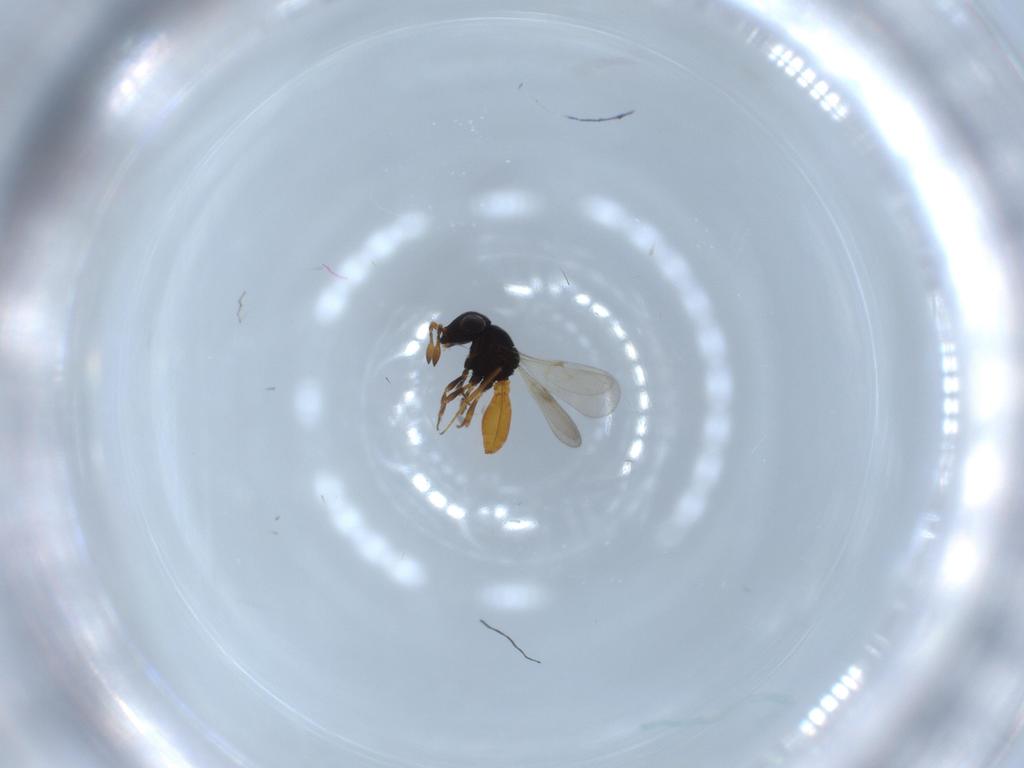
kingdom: Animalia
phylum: Arthropoda
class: Insecta
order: Hymenoptera
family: Scelionidae
